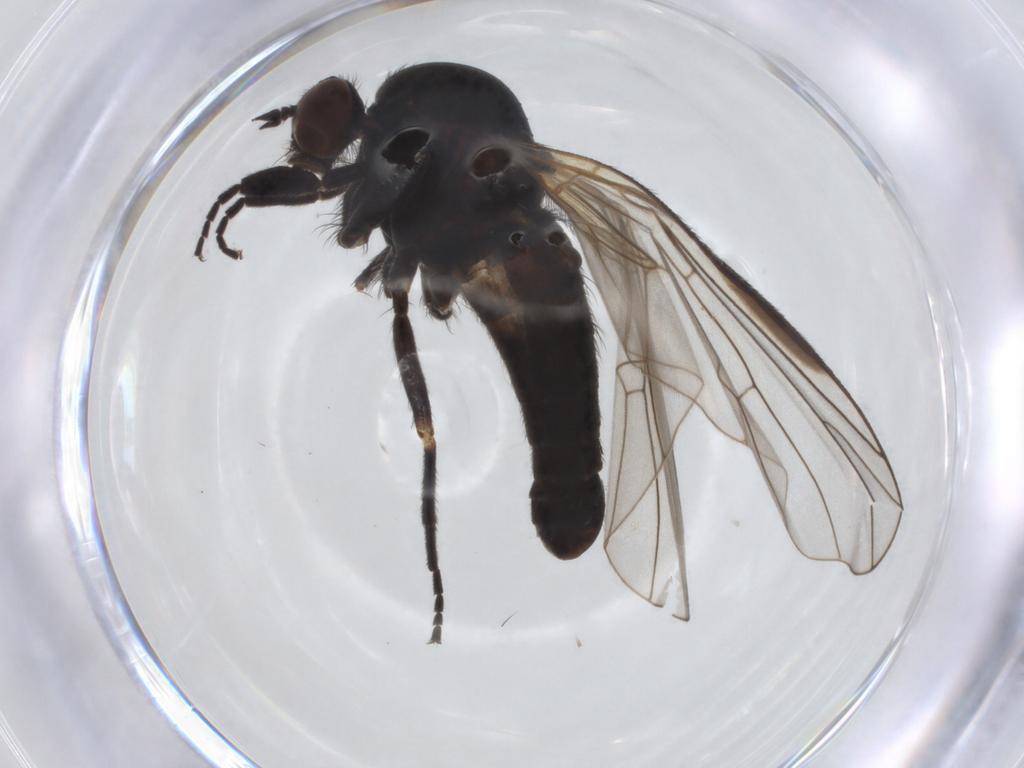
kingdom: Animalia
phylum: Arthropoda
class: Insecta
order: Diptera
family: Empididae
